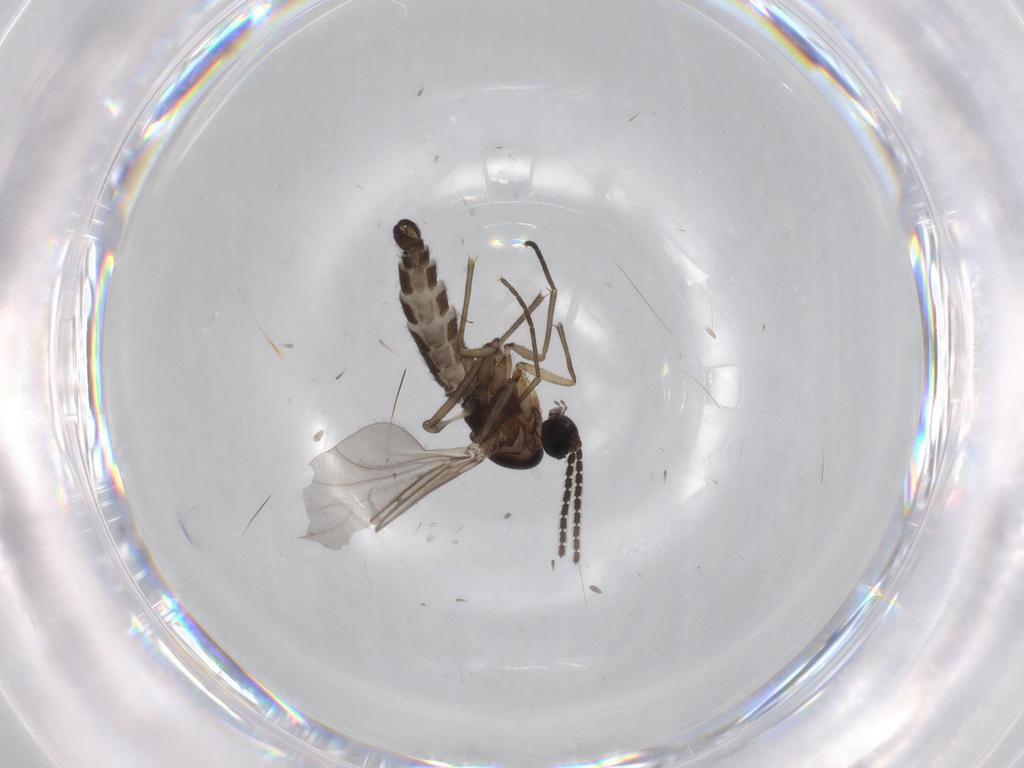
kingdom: Animalia
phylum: Arthropoda
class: Insecta
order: Diptera
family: Sciaridae
